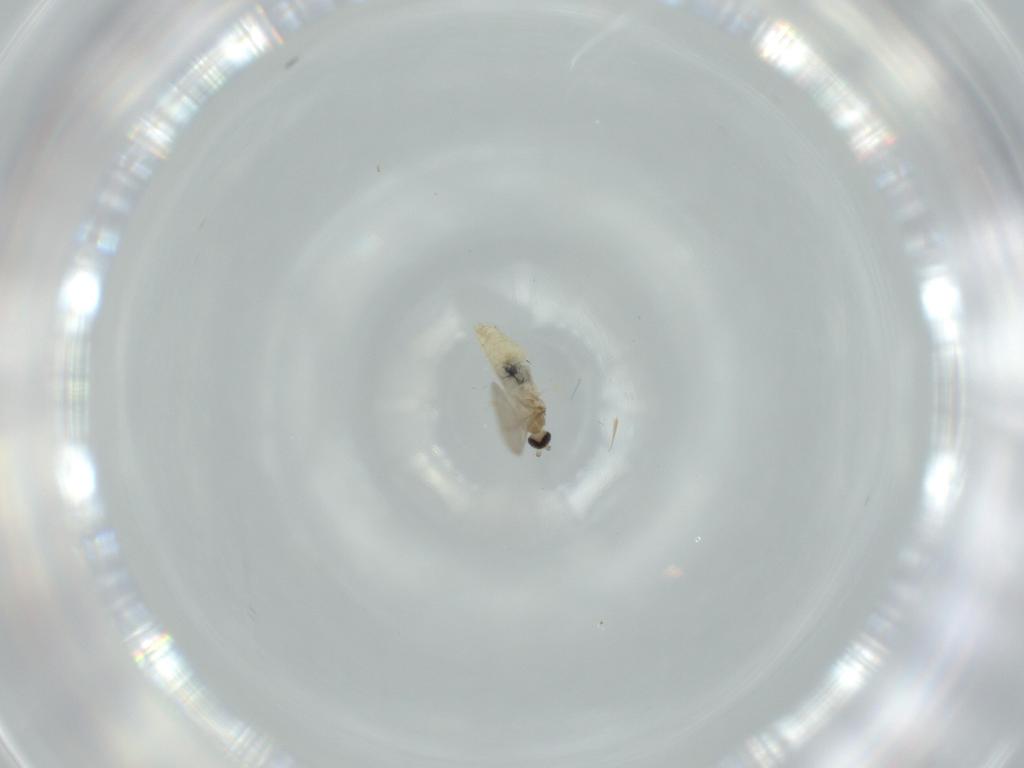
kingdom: Animalia
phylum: Arthropoda
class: Insecta
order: Diptera
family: Cecidomyiidae
